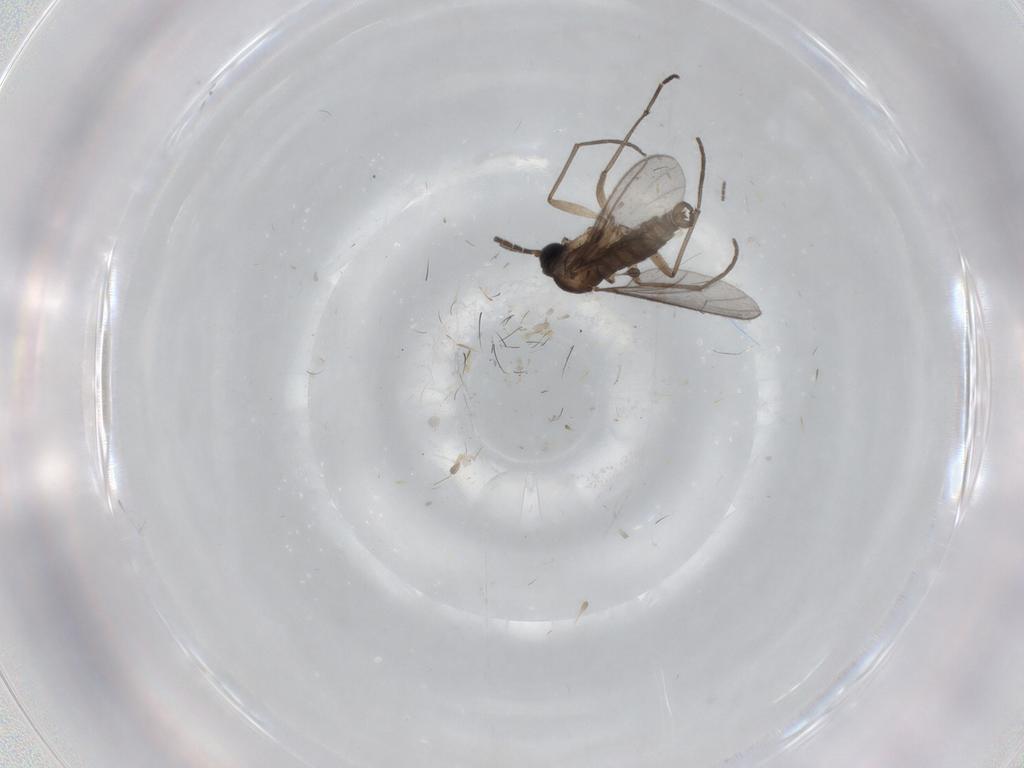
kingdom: Animalia
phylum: Arthropoda
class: Insecta
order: Diptera
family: Sciaridae
